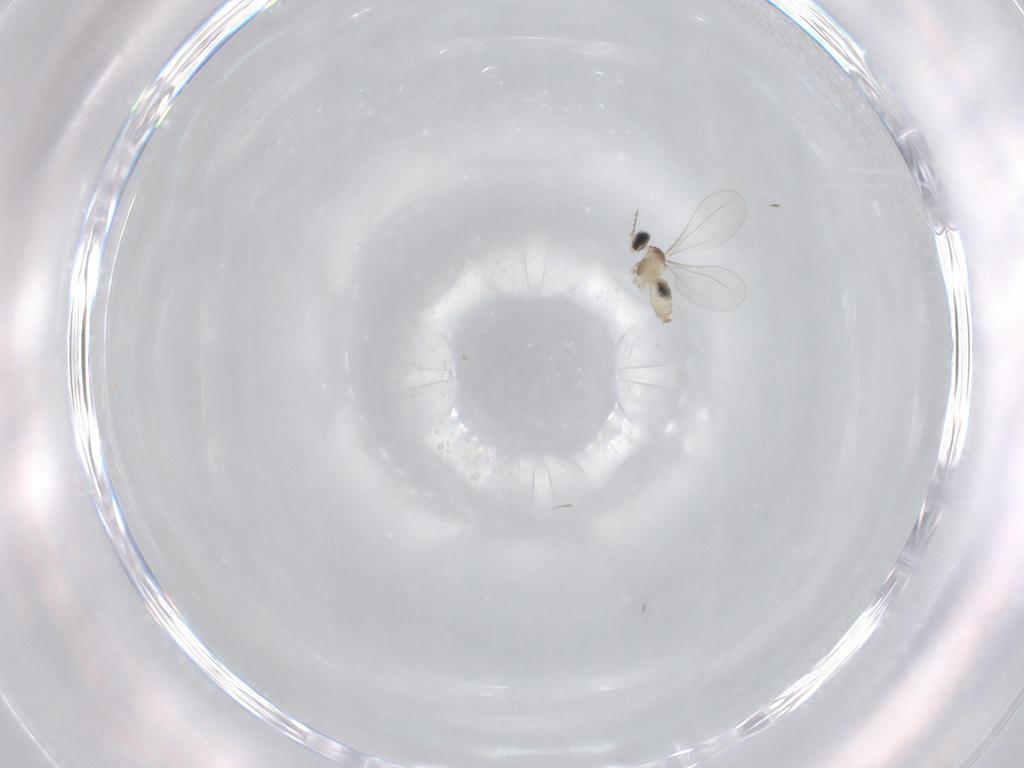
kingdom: Animalia
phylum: Arthropoda
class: Insecta
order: Diptera
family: Cecidomyiidae
